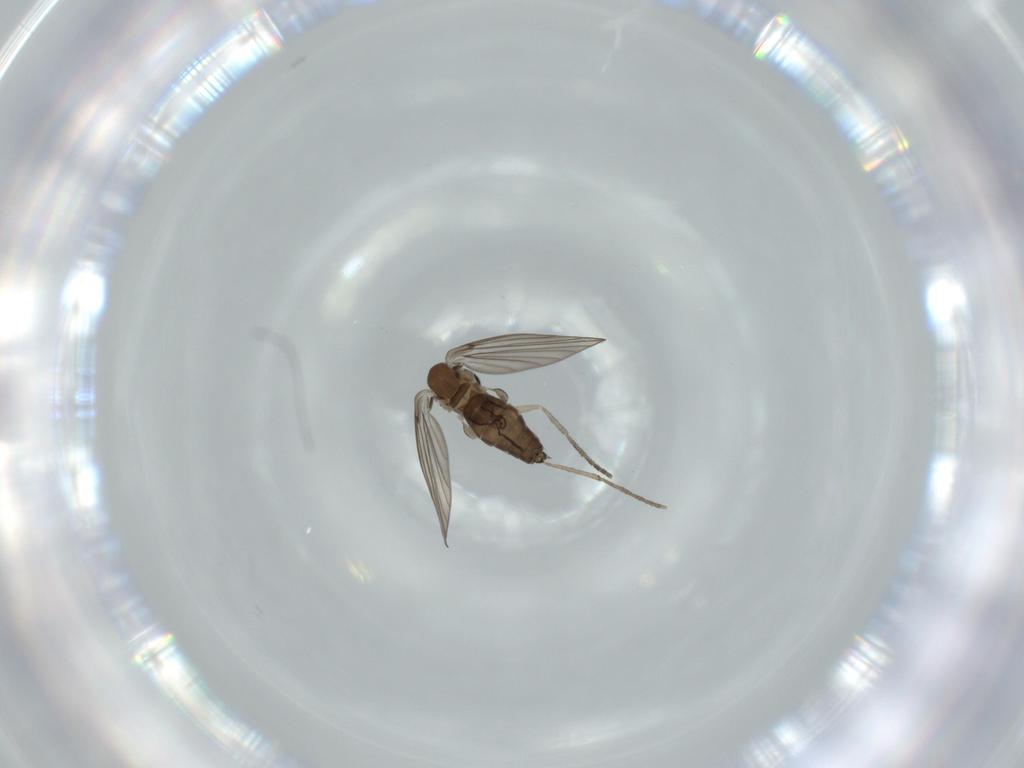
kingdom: Animalia
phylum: Arthropoda
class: Insecta
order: Diptera
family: Psychodidae
